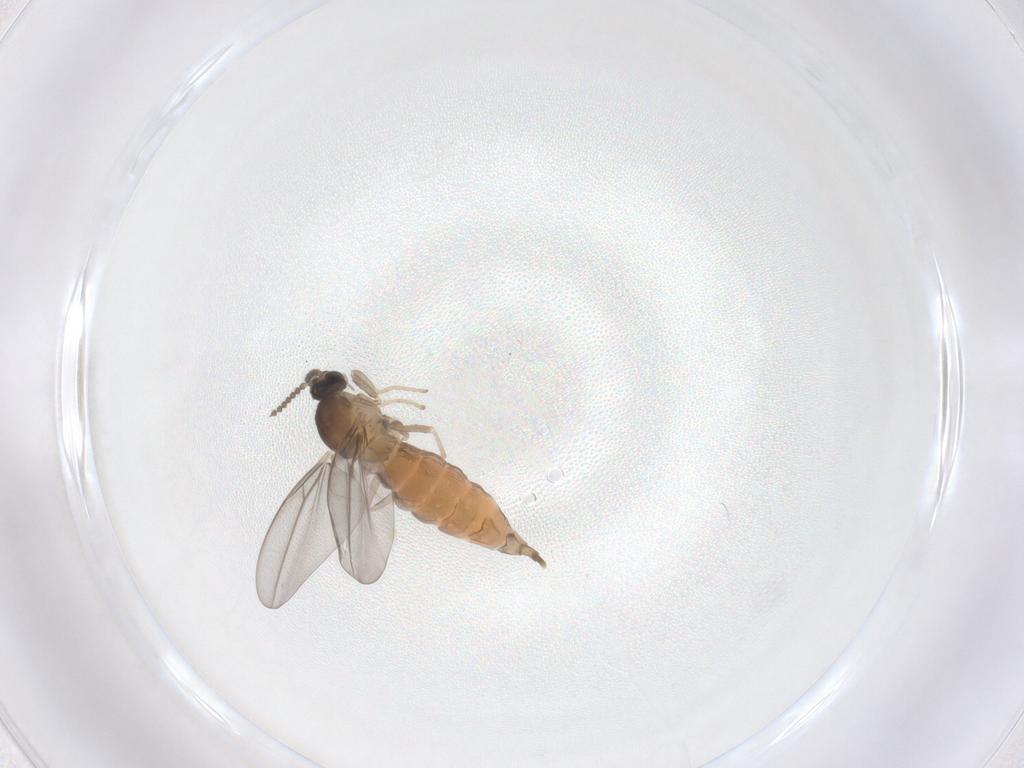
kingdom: Animalia
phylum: Arthropoda
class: Insecta
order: Diptera
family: Cecidomyiidae
